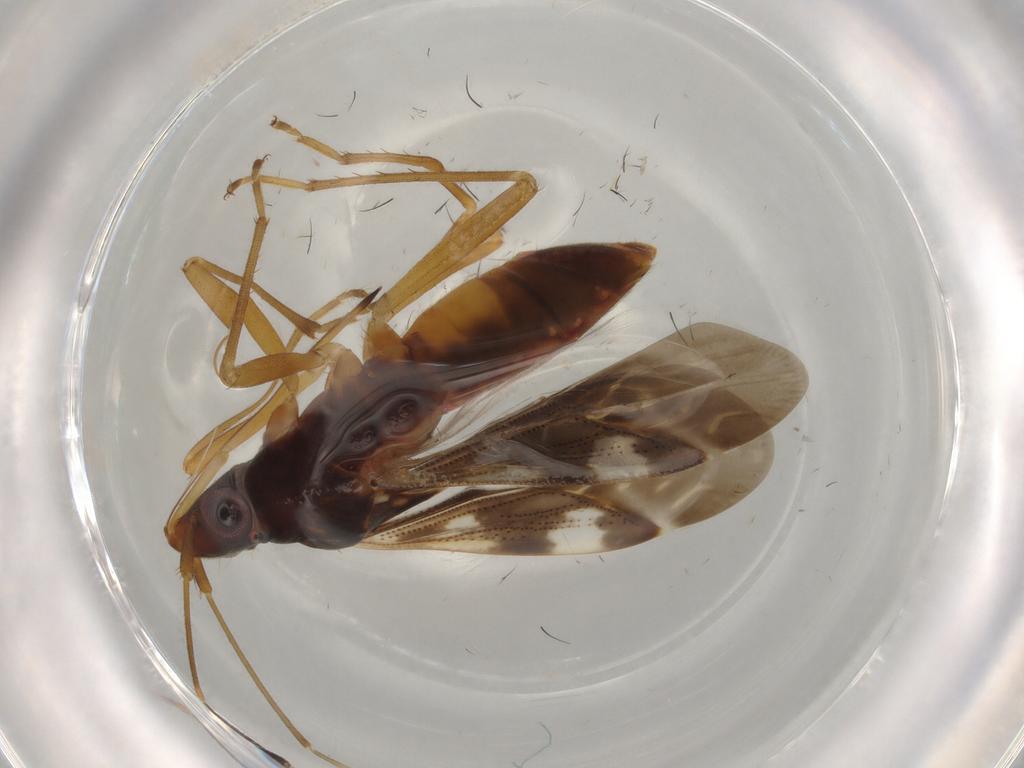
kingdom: Animalia
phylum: Arthropoda
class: Insecta
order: Hemiptera
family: Rhyparochromidae
